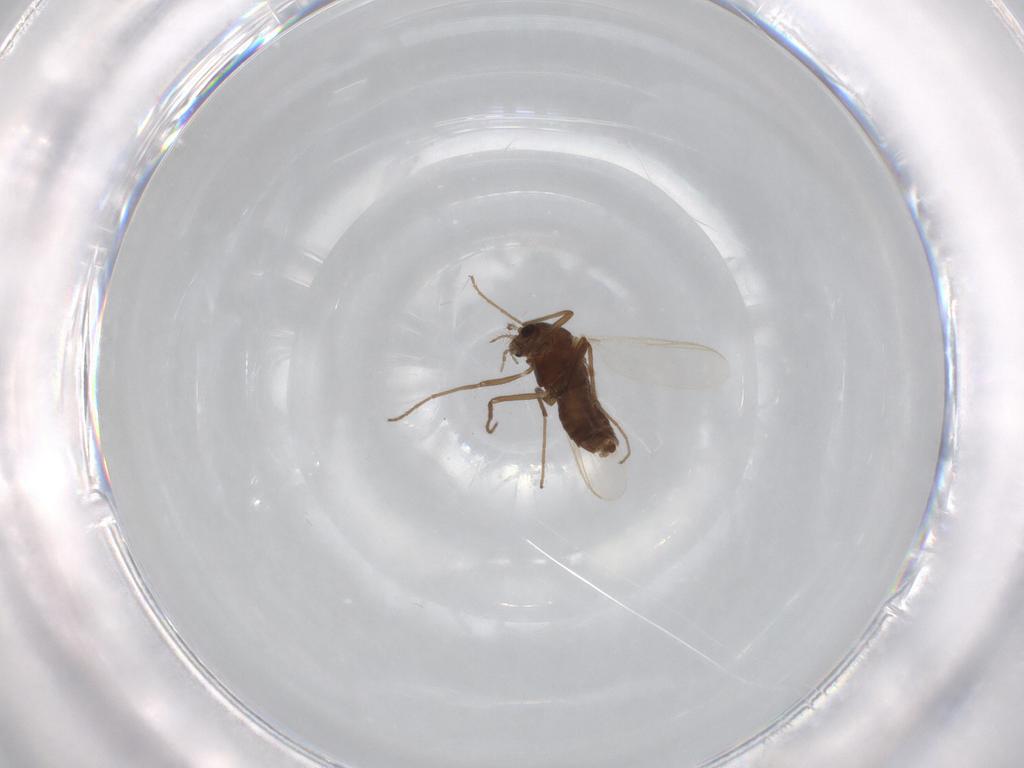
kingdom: Animalia
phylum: Arthropoda
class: Insecta
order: Diptera
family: Chironomidae
